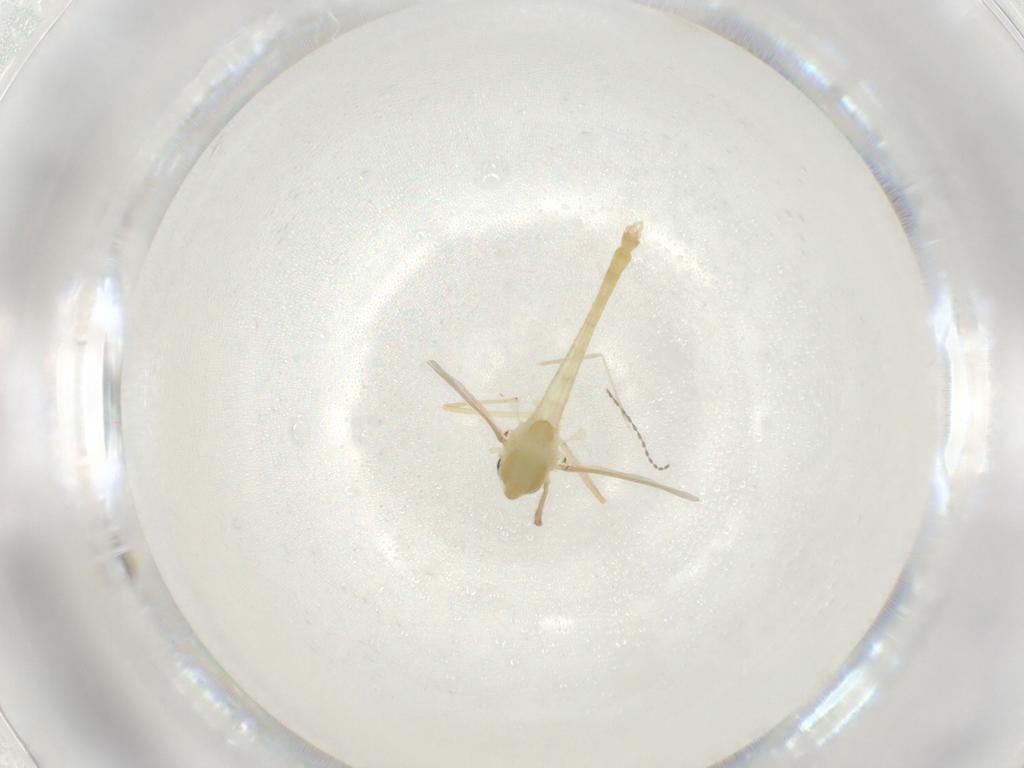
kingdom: Animalia
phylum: Arthropoda
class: Insecta
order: Diptera
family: Chironomidae
